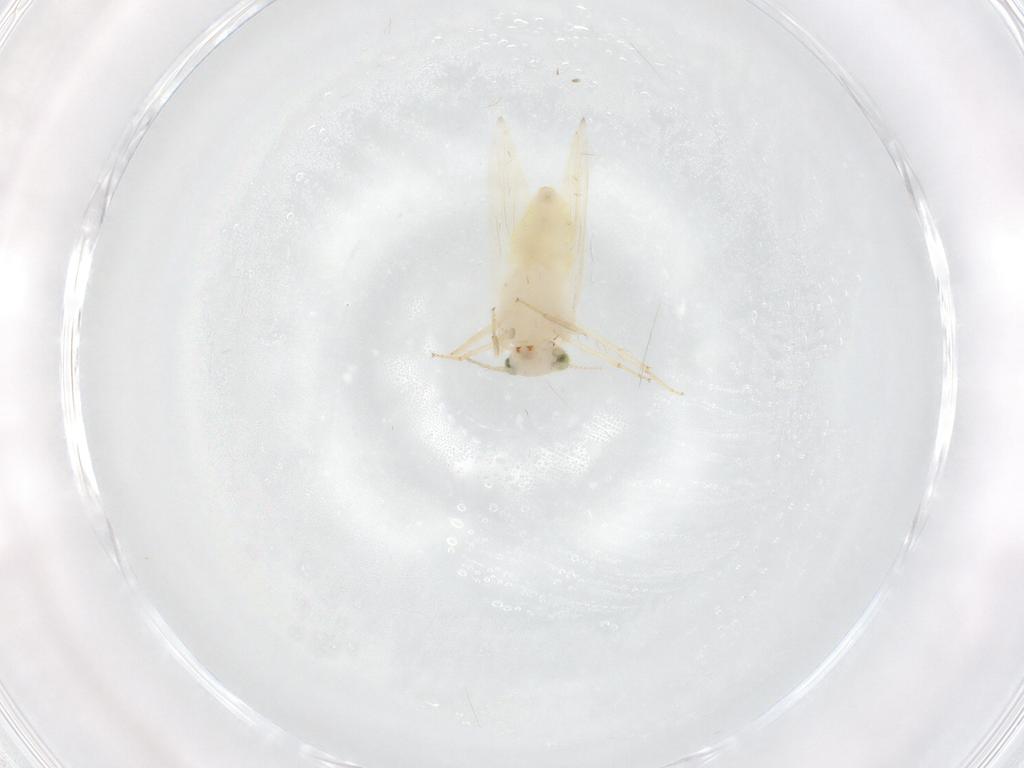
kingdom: Animalia
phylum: Arthropoda
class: Insecta
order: Psocodea
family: Lepidopsocidae
